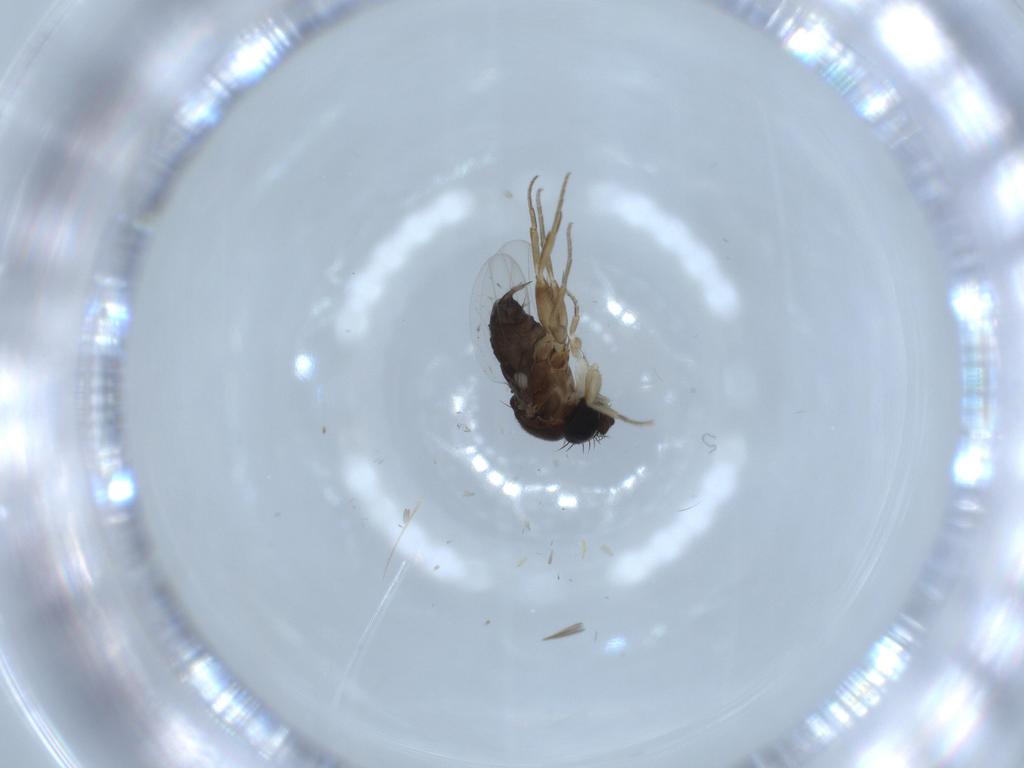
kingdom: Animalia
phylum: Arthropoda
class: Insecta
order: Diptera
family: Phoridae
